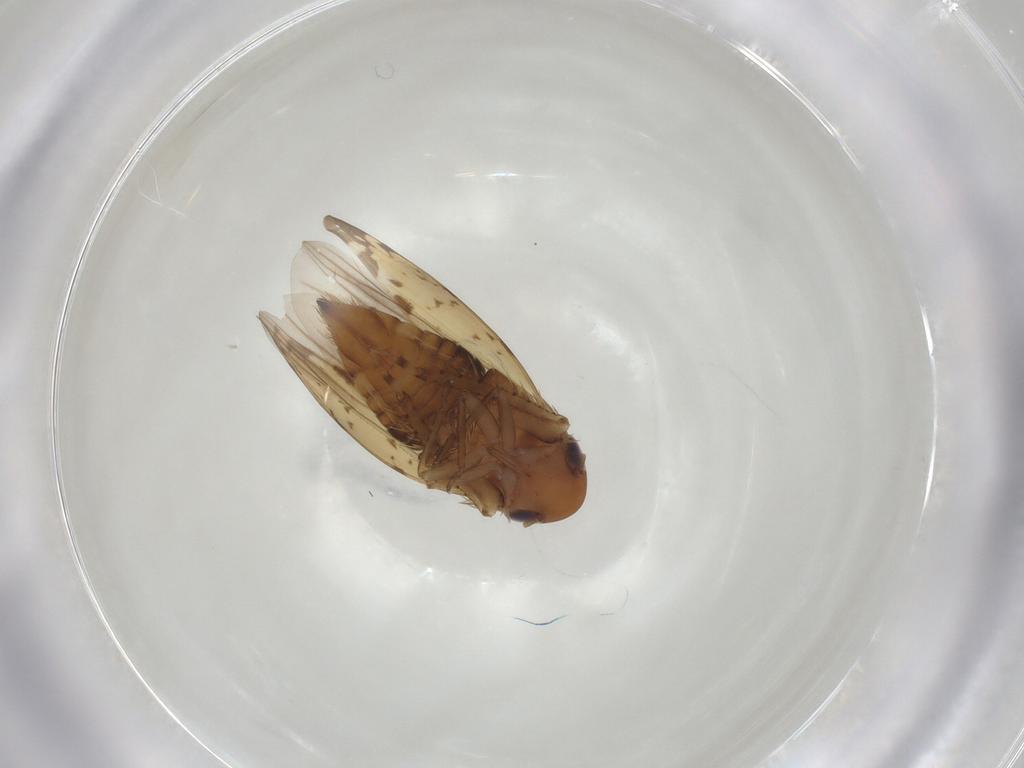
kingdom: Animalia
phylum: Arthropoda
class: Insecta
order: Hemiptera
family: Cicadellidae
